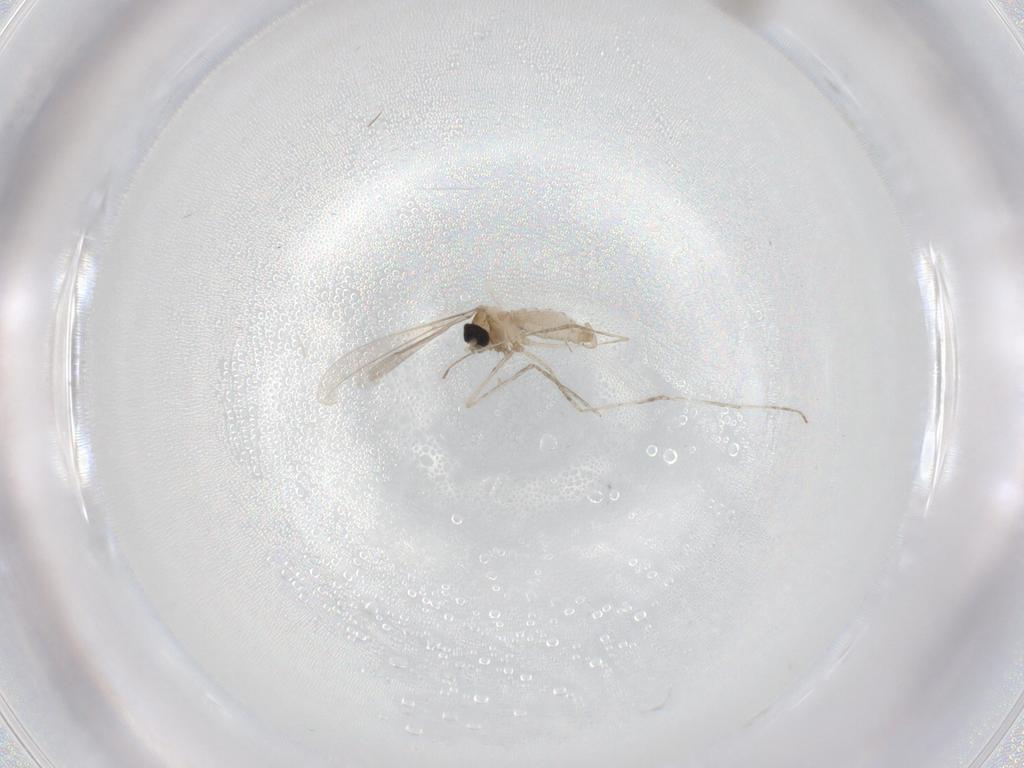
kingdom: Animalia
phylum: Arthropoda
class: Insecta
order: Diptera
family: Cecidomyiidae
